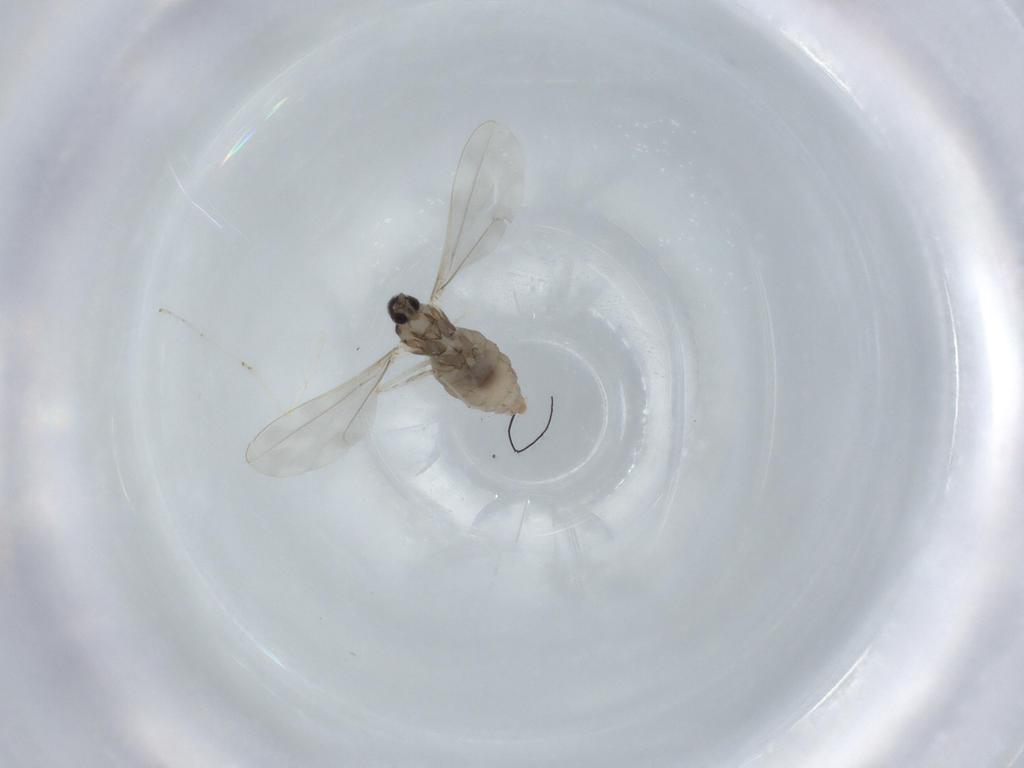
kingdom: Animalia
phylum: Arthropoda
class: Insecta
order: Diptera
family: Cecidomyiidae
